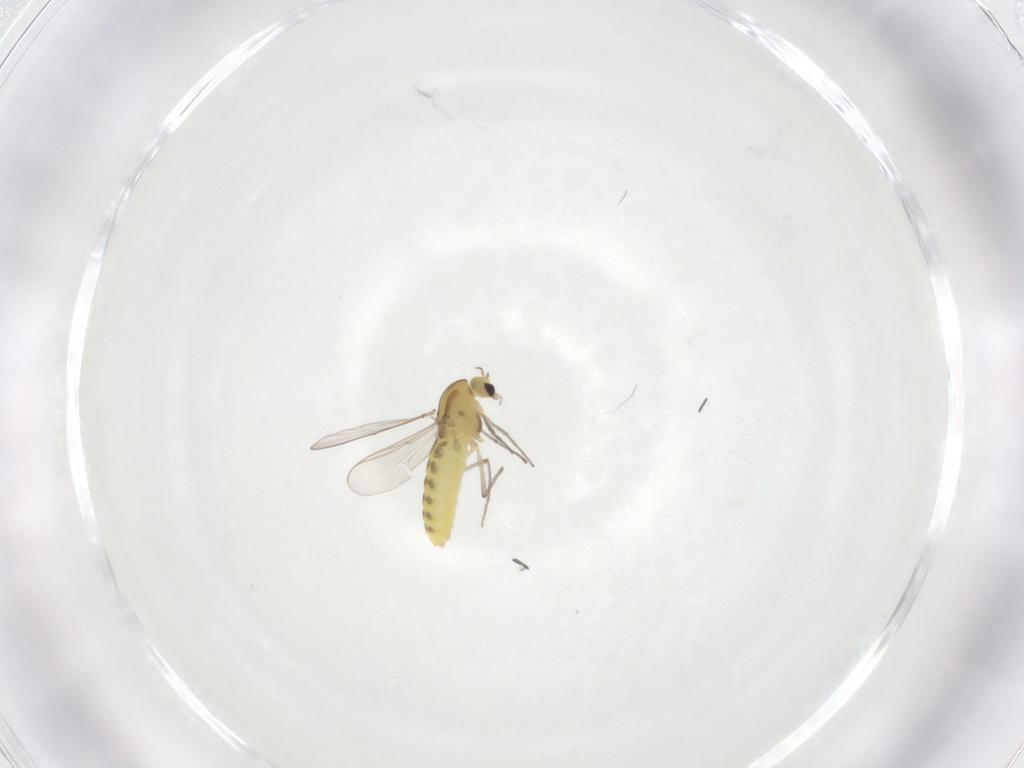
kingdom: Animalia
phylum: Arthropoda
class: Insecta
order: Diptera
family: Chironomidae
